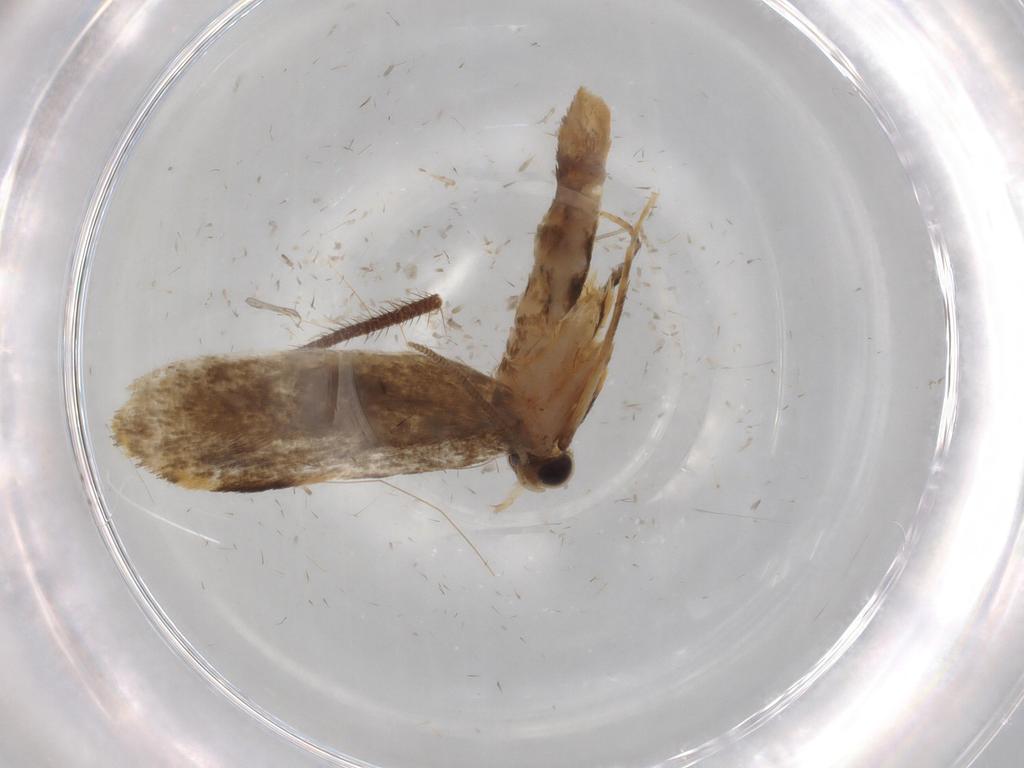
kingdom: Animalia
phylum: Arthropoda
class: Insecta
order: Lepidoptera
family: Tineidae
